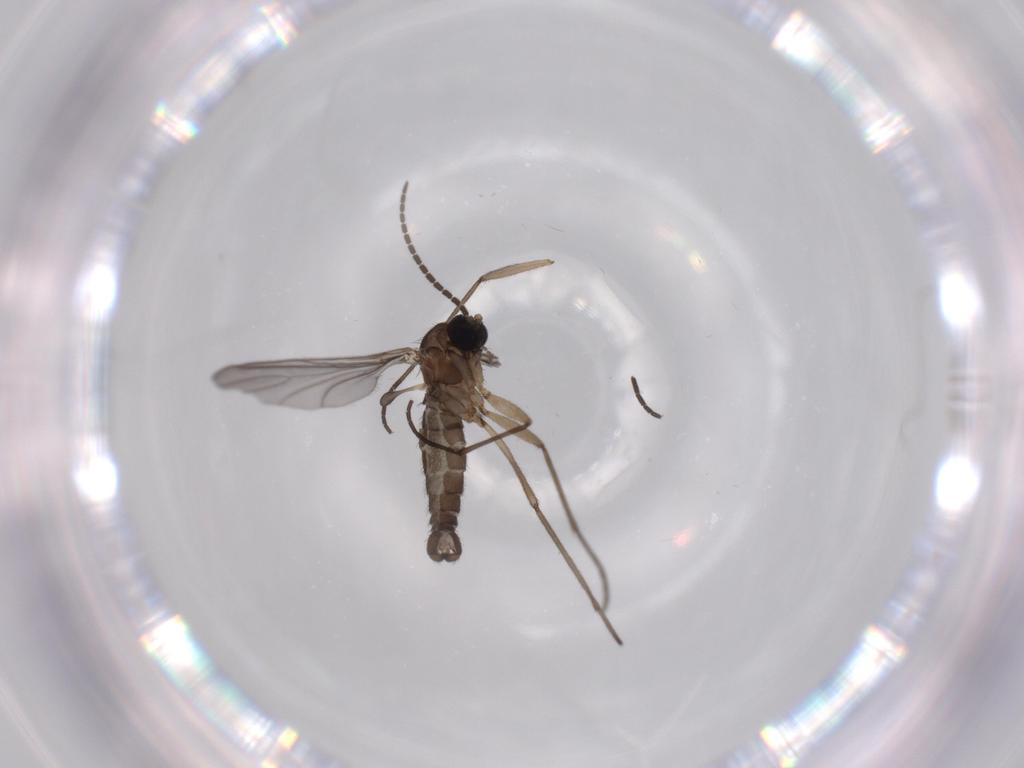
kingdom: Animalia
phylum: Arthropoda
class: Insecta
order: Diptera
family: Sciaridae
